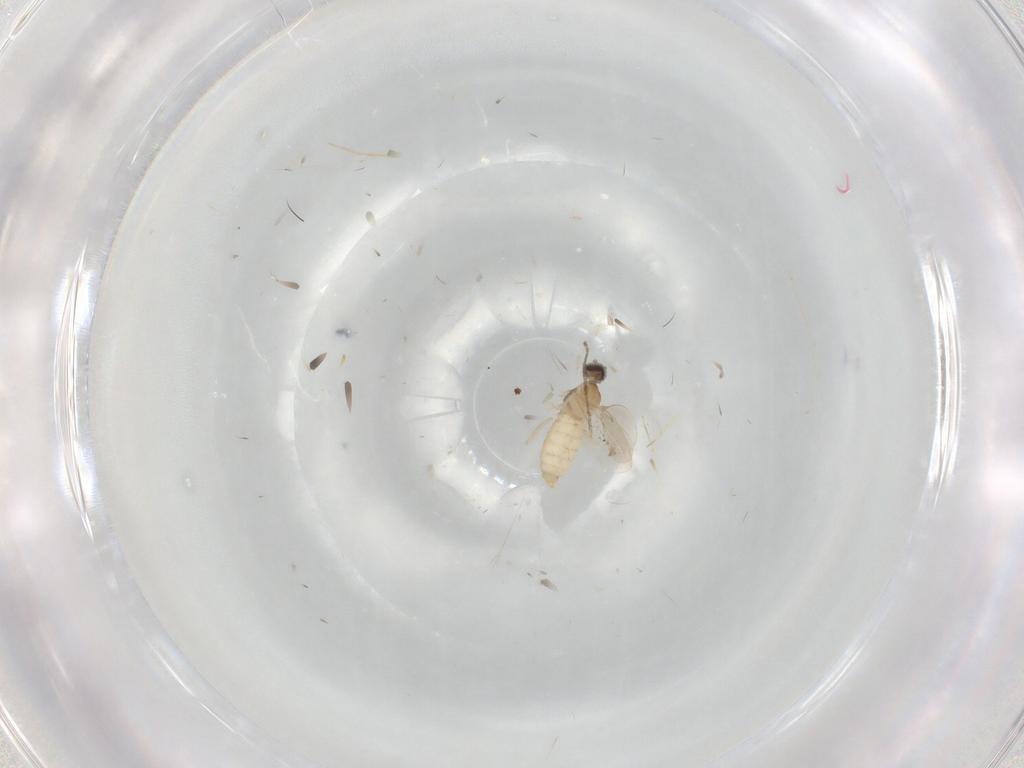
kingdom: Animalia
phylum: Arthropoda
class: Insecta
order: Diptera
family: Cecidomyiidae
